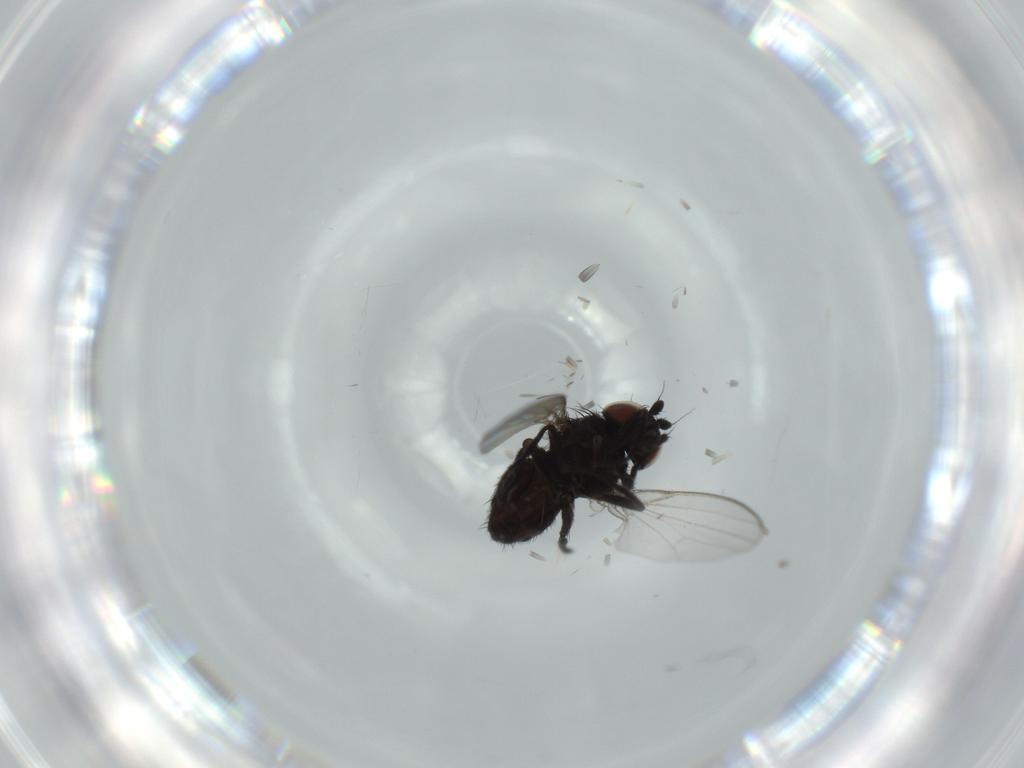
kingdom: Animalia
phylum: Arthropoda
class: Insecta
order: Diptera
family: Milichiidae
